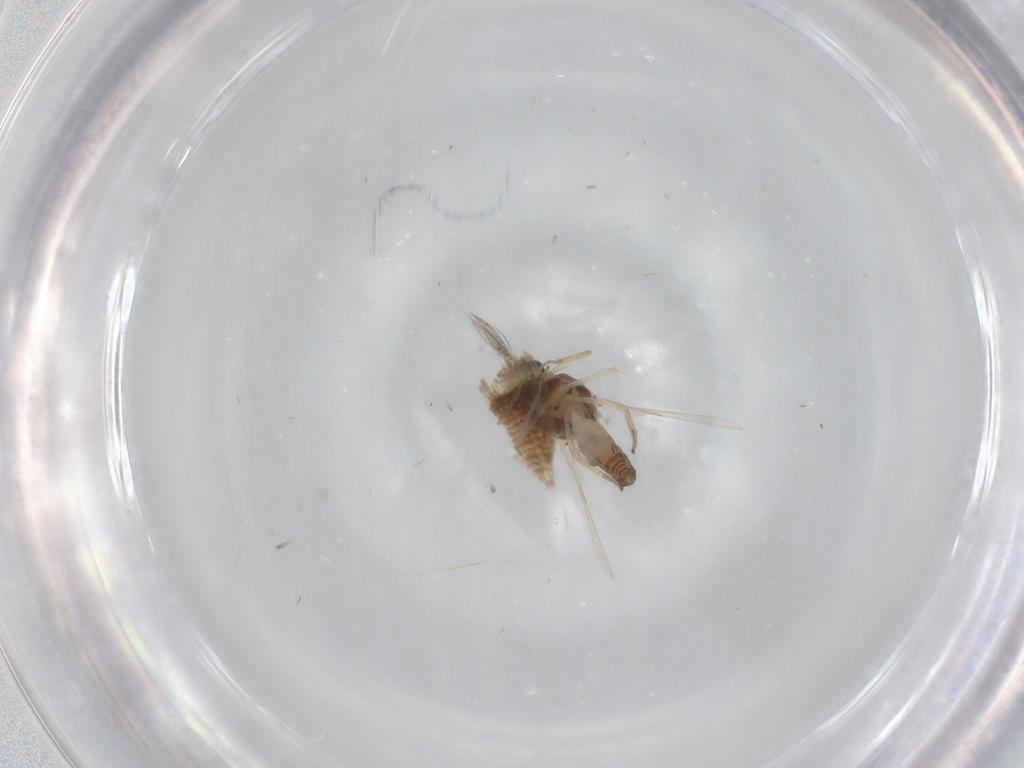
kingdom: Animalia
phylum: Arthropoda
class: Insecta
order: Diptera
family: Ceratopogonidae
